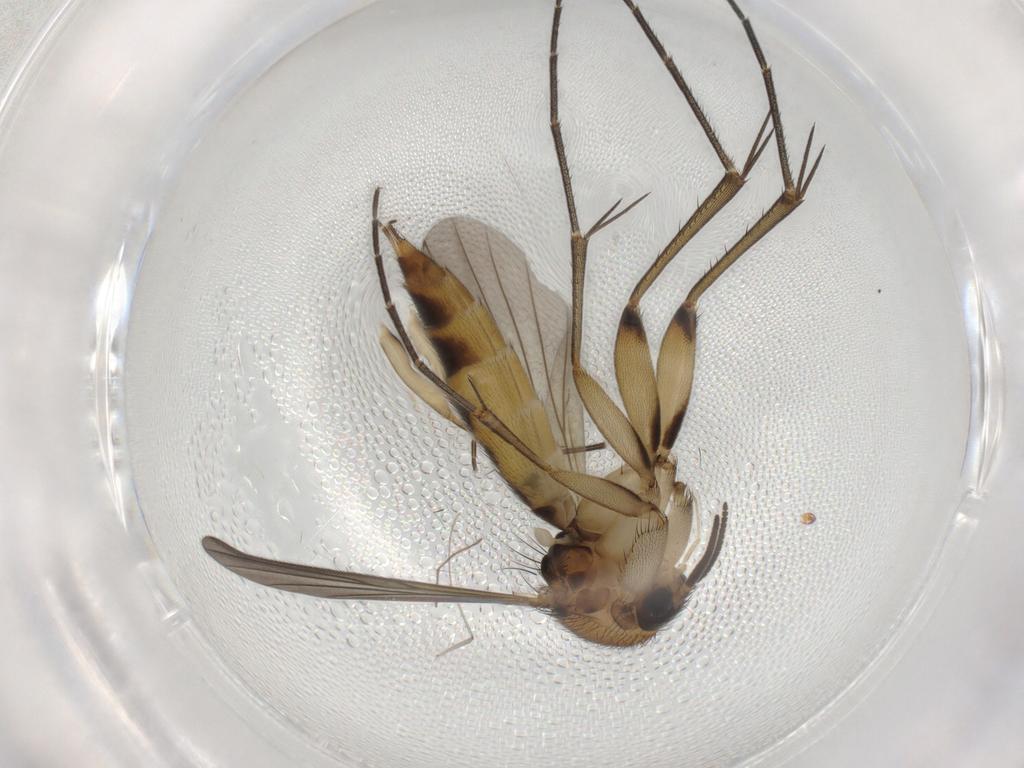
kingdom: Animalia
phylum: Arthropoda
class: Insecta
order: Diptera
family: Mycetophilidae
